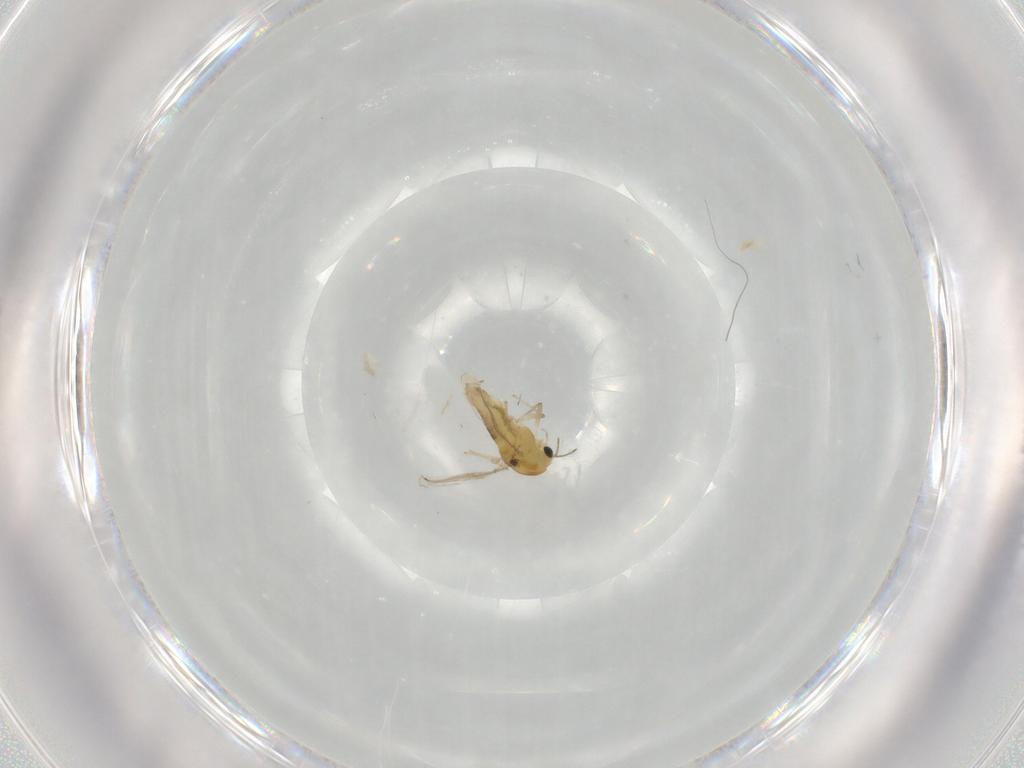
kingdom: Animalia
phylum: Arthropoda
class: Insecta
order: Diptera
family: Chironomidae
